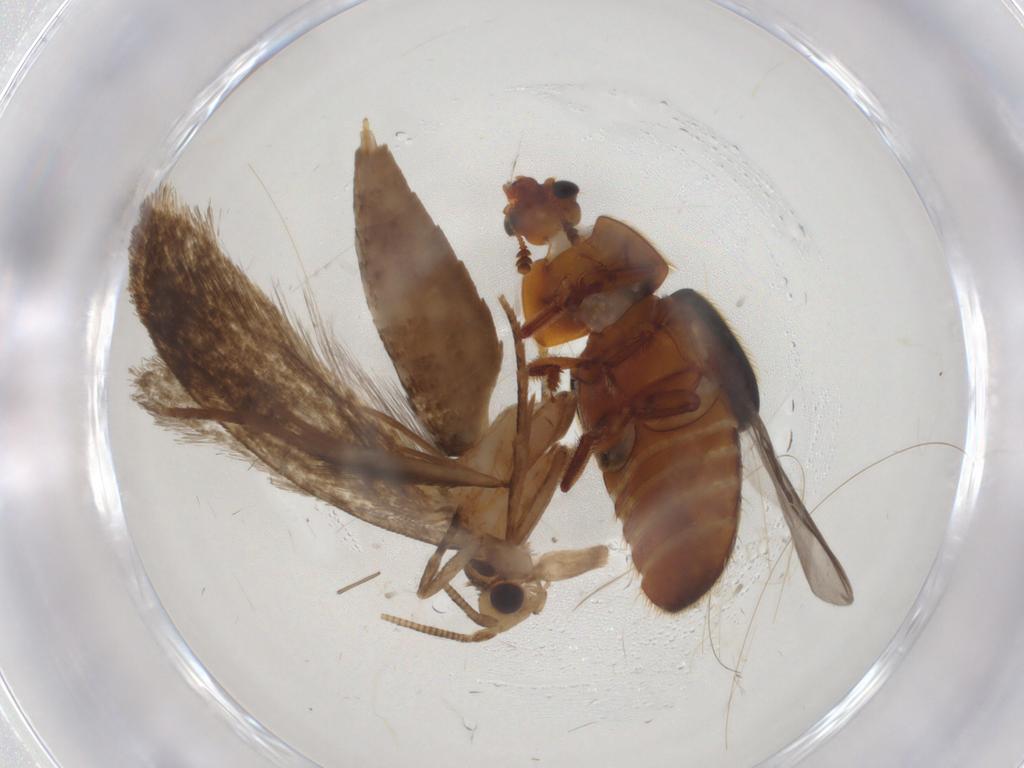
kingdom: Animalia
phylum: Arthropoda
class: Insecta
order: Lepidoptera
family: Noctuidae
